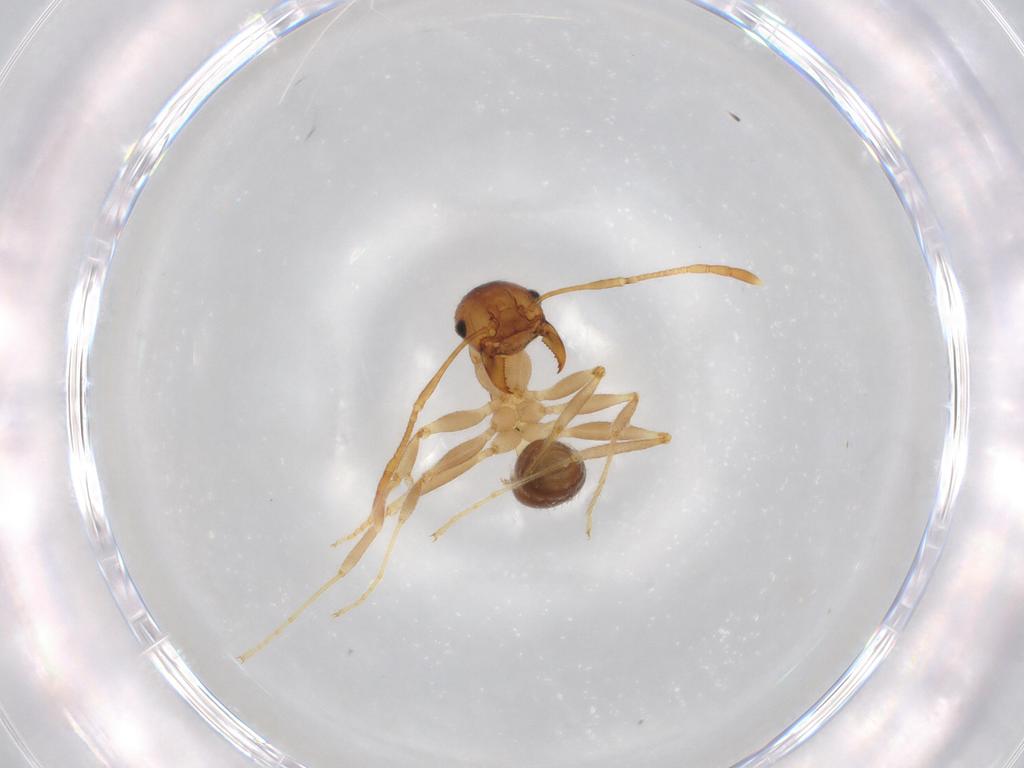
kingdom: Animalia
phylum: Arthropoda
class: Insecta
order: Hymenoptera
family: Formicidae
